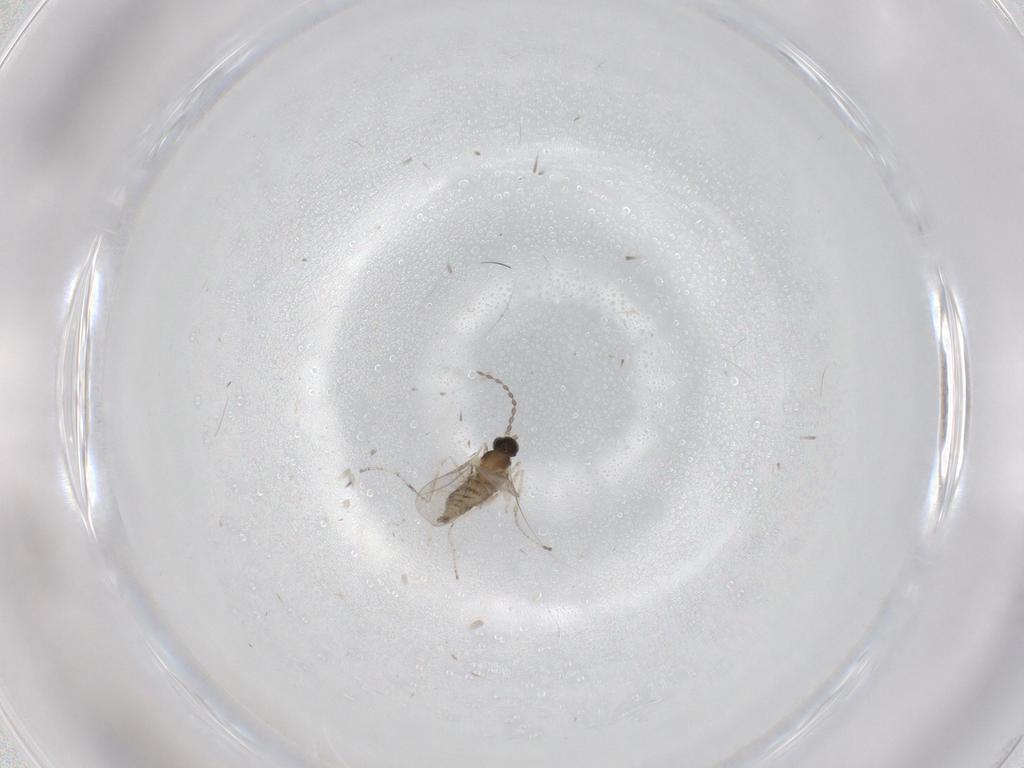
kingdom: Animalia
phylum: Arthropoda
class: Insecta
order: Diptera
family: Cecidomyiidae
